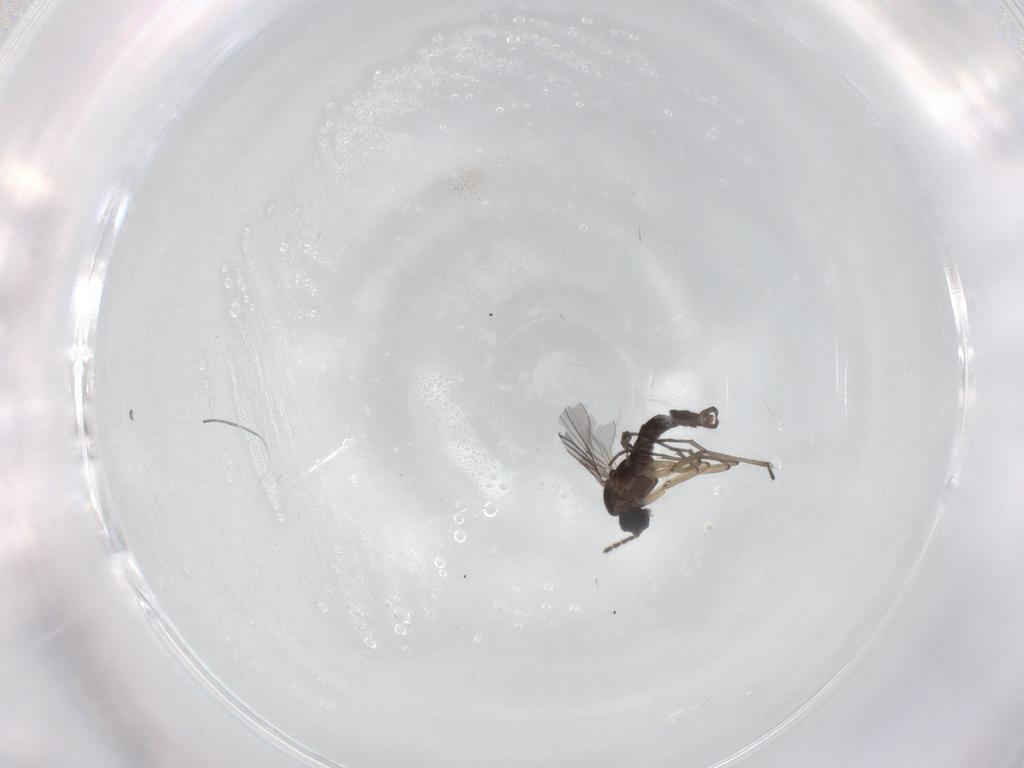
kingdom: Animalia
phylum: Arthropoda
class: Insecta
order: Diptera
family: Sciaridae
